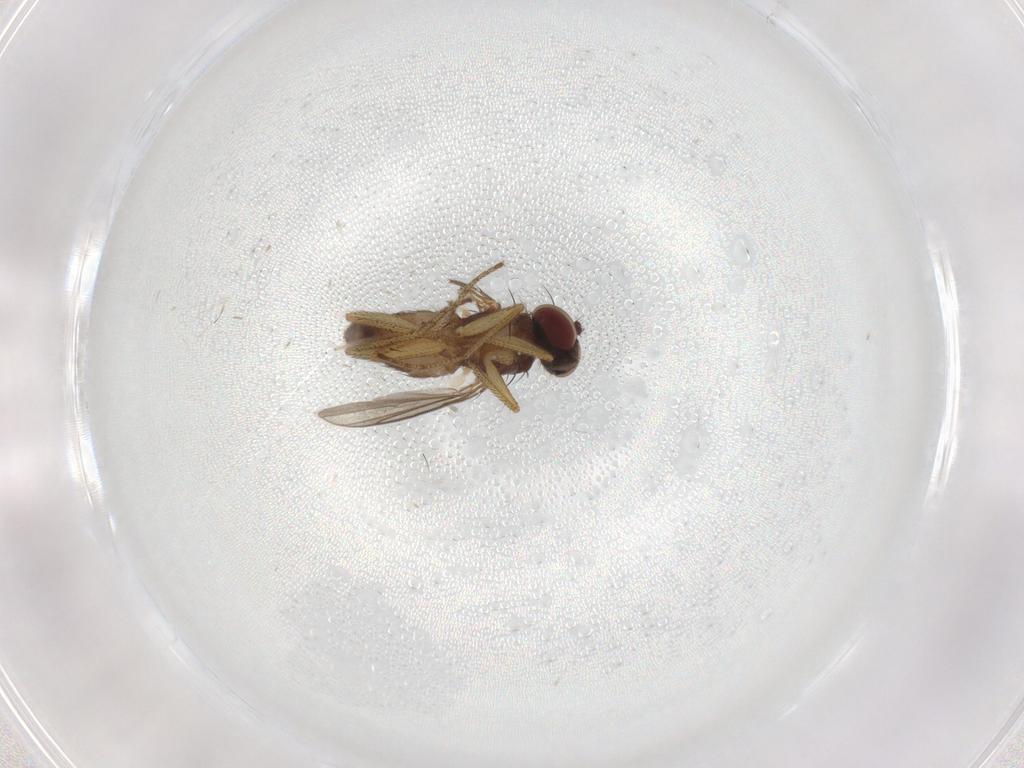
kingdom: Animalia
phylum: Arthropoda
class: Insecta
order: Diptera
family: Chironomidae
